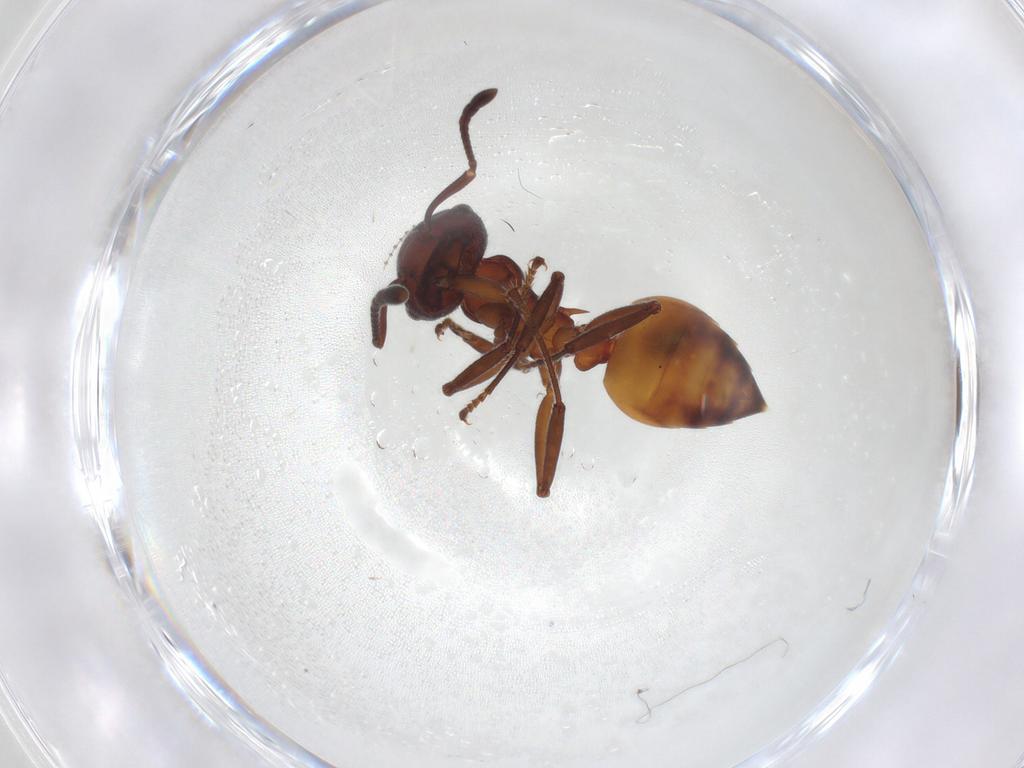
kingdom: Animalia
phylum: Arthropoda
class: Insecta
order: Hymenoptera
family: Formicidae
